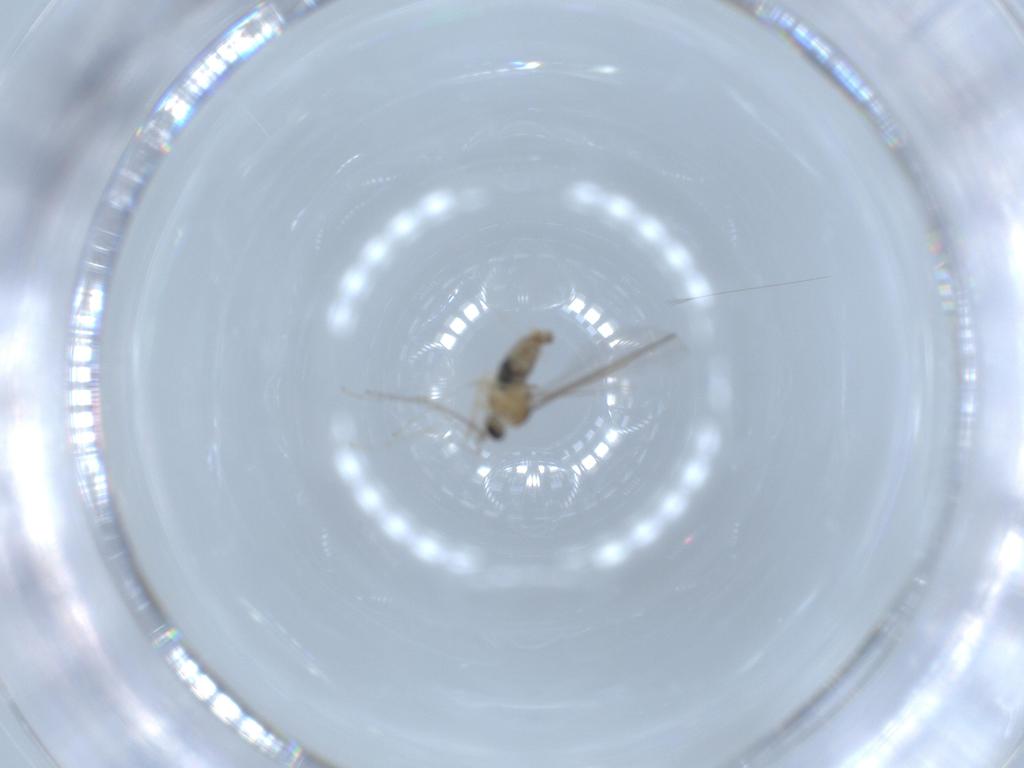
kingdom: Animalia
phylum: Arthropoda
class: Insecta
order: Diptera
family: Cecidomyiidae
